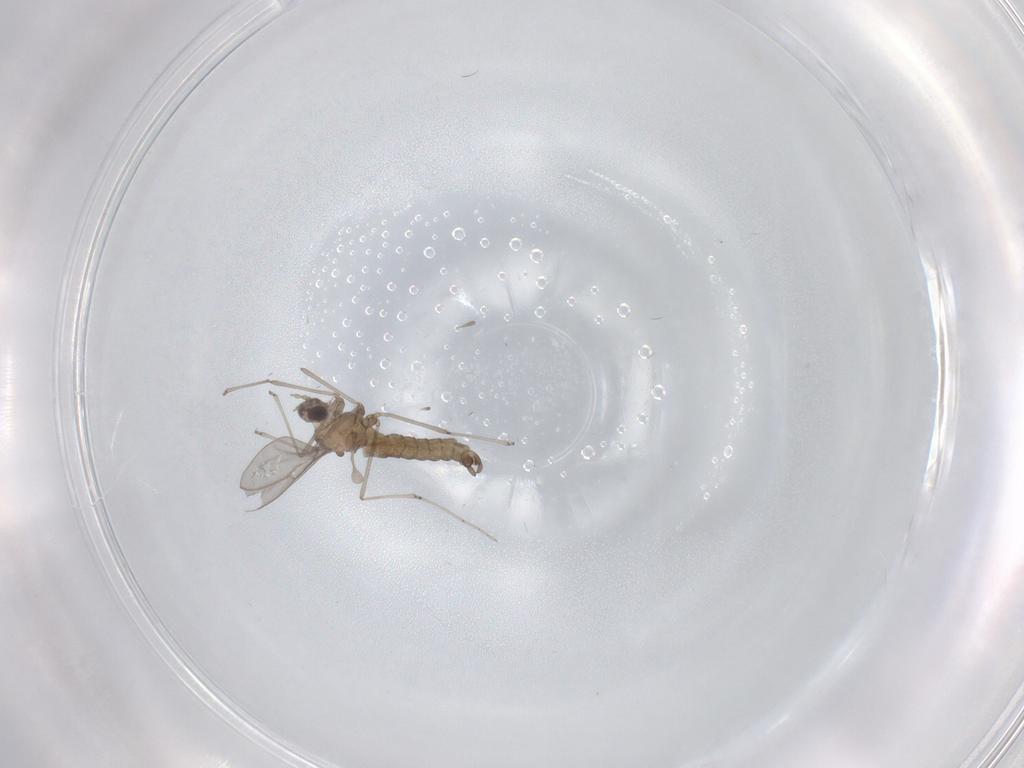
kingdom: Animalia
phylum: Arthropoda
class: Insecta
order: Diptera
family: Cecidomyiidae
